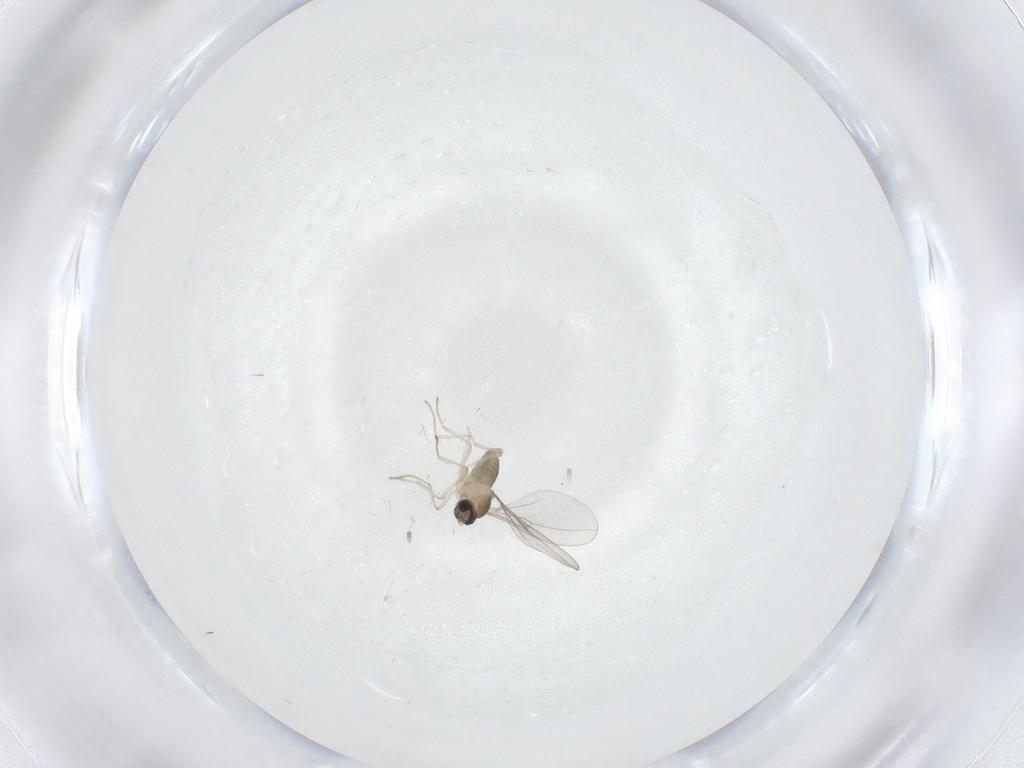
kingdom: Animalia
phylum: Arthropoda
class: Insecta
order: Diptera
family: Cecidomyiidae
